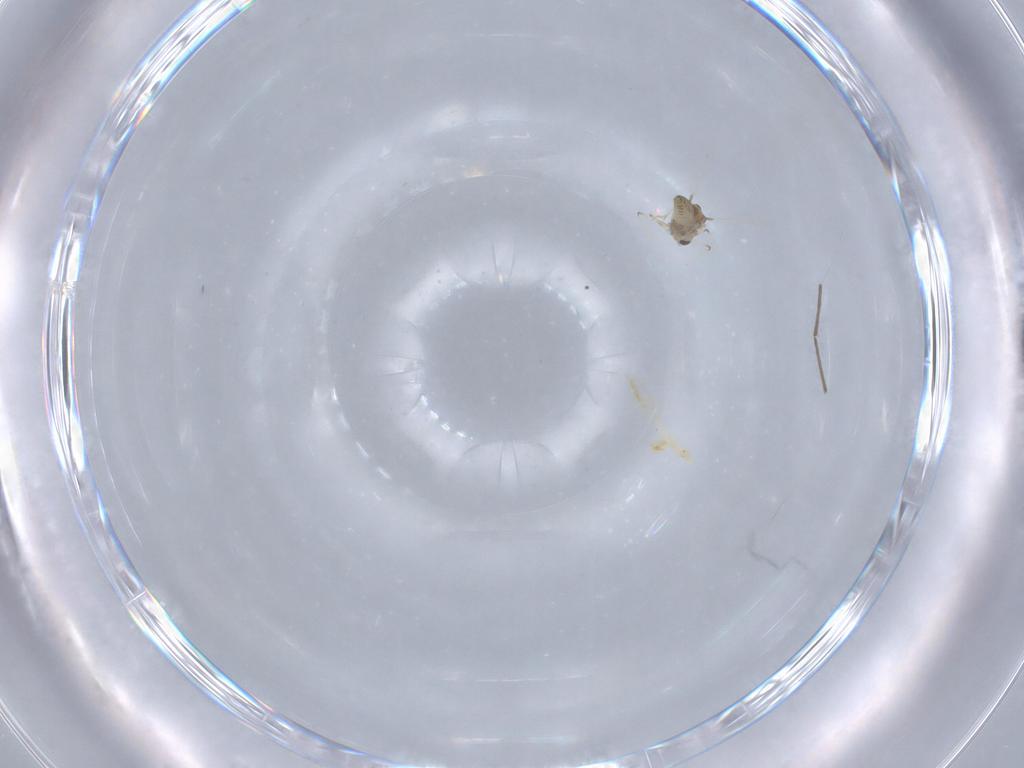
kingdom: Animalia
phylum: Arthropoda
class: Insecta
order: Diptera
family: Chironomidae
